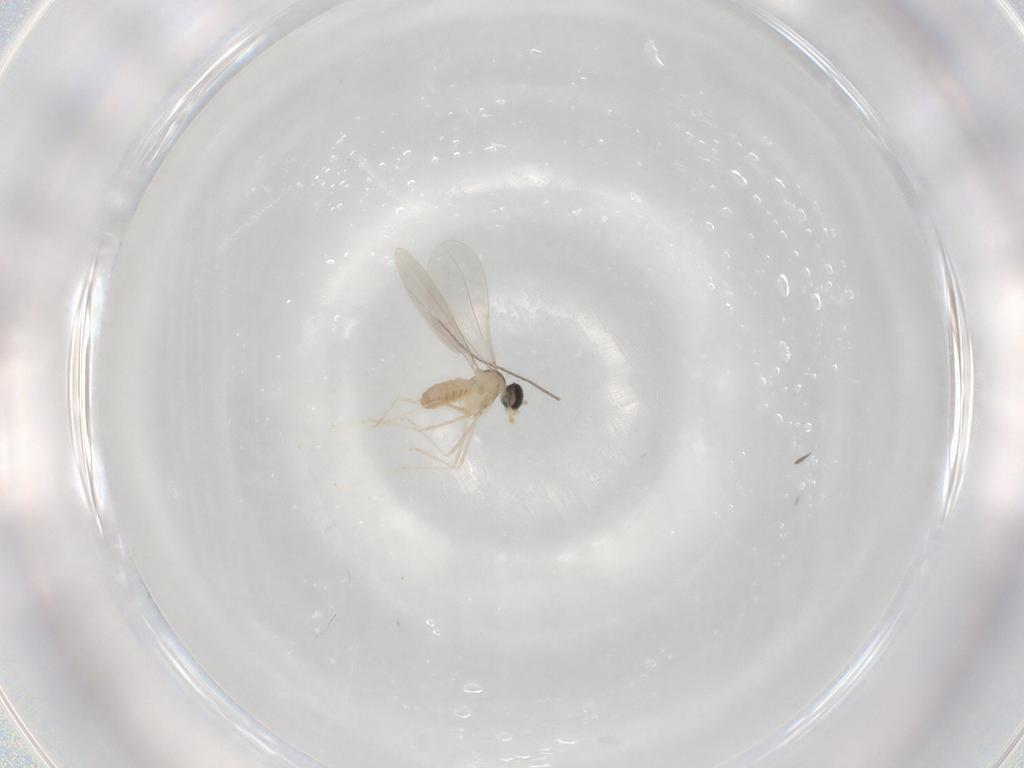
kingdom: Animalia
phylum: Arthropoda
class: Insecta
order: Diptera
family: Cecidomyiidae
